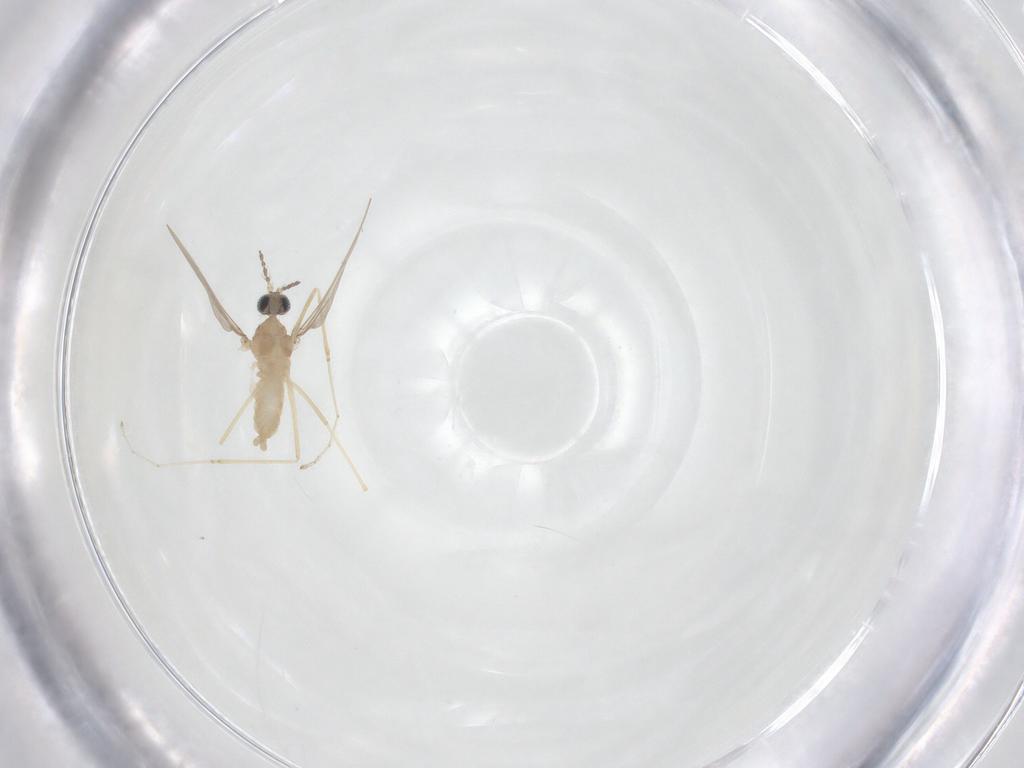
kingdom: Animalia
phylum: Arthropoda
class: Insecta
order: Diptera
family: Cecidomyiidae
